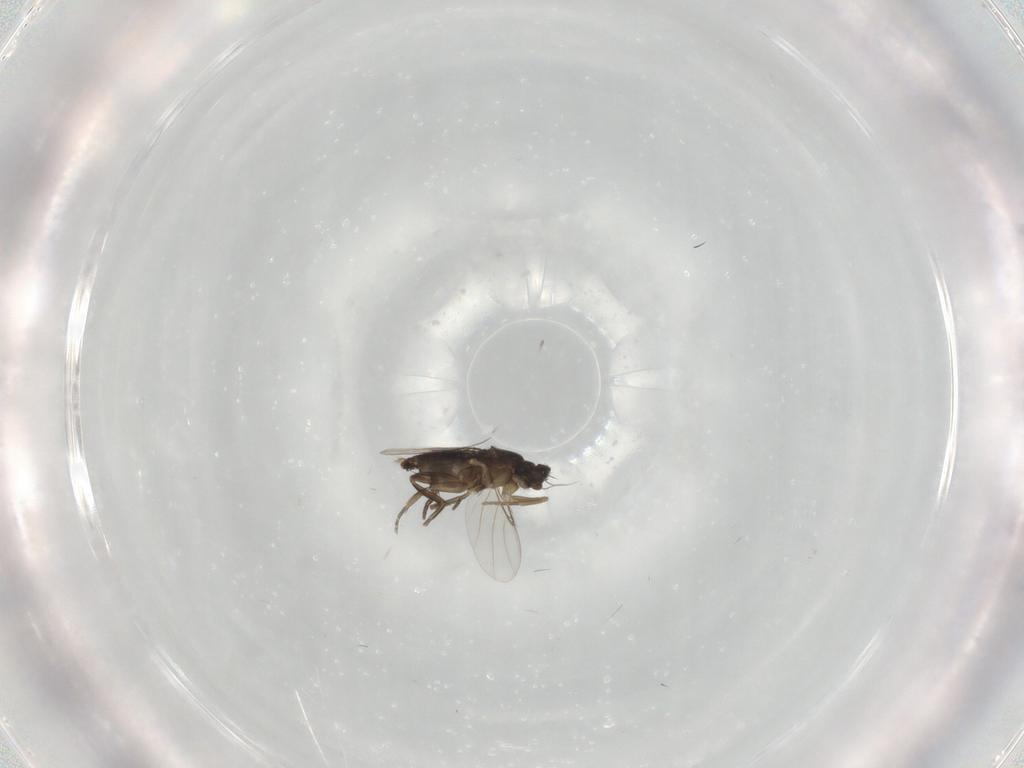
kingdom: Animalia
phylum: Arthropoda
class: Insecta
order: Diptera
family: Phoridae
